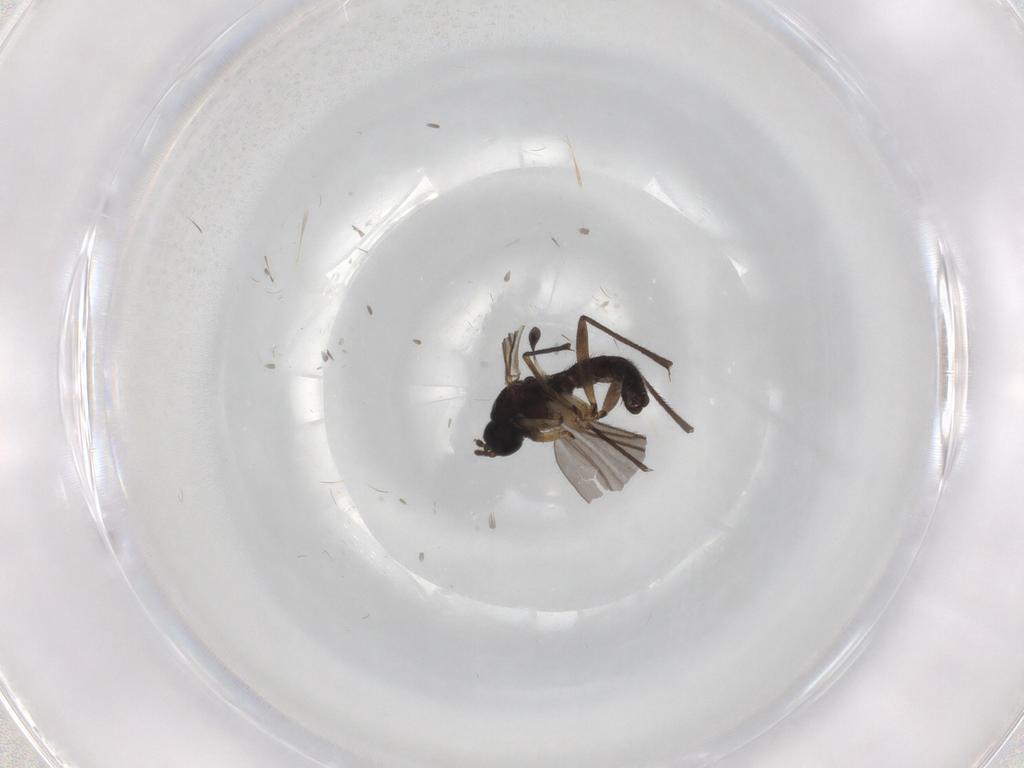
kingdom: Animalia
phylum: Arthropoda
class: Insecta
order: Diptera
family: Sciaridae
